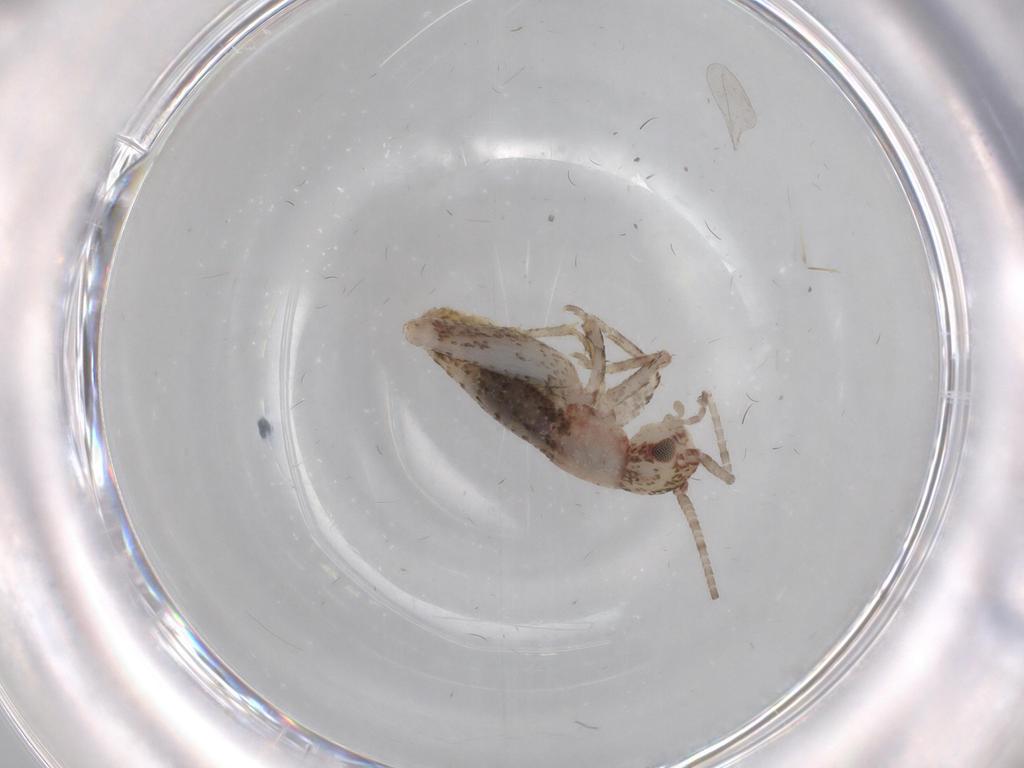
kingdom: Animalia
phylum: Arthropoda
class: Insecta
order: Orthoptera
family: Mogoplistidae
